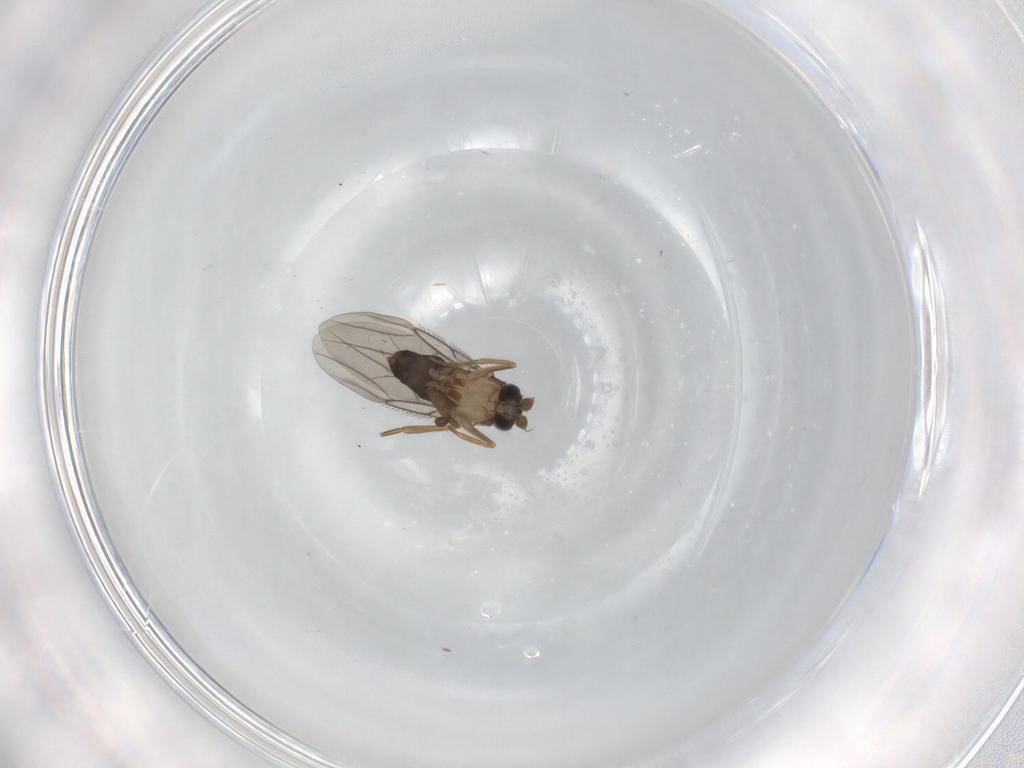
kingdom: Animalia
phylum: Arthropoda
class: Insecta
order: Diptera
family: Phoridae
